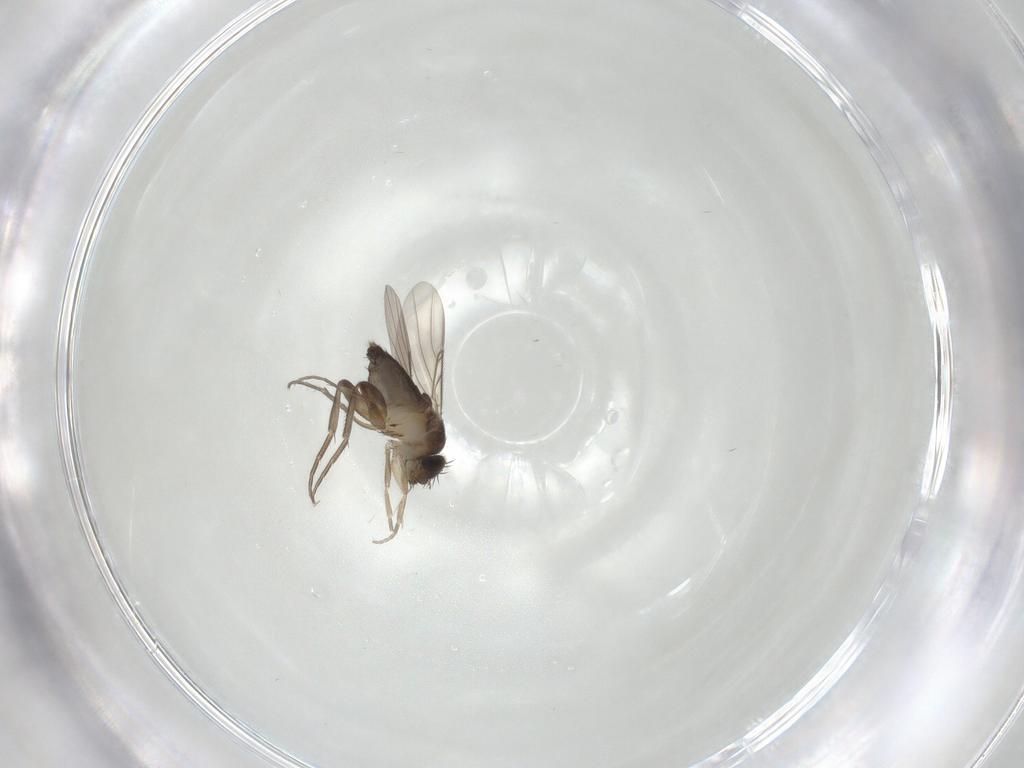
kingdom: Animalia
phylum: Arthropoda
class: Insecta
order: Diptera
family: Phoridae
